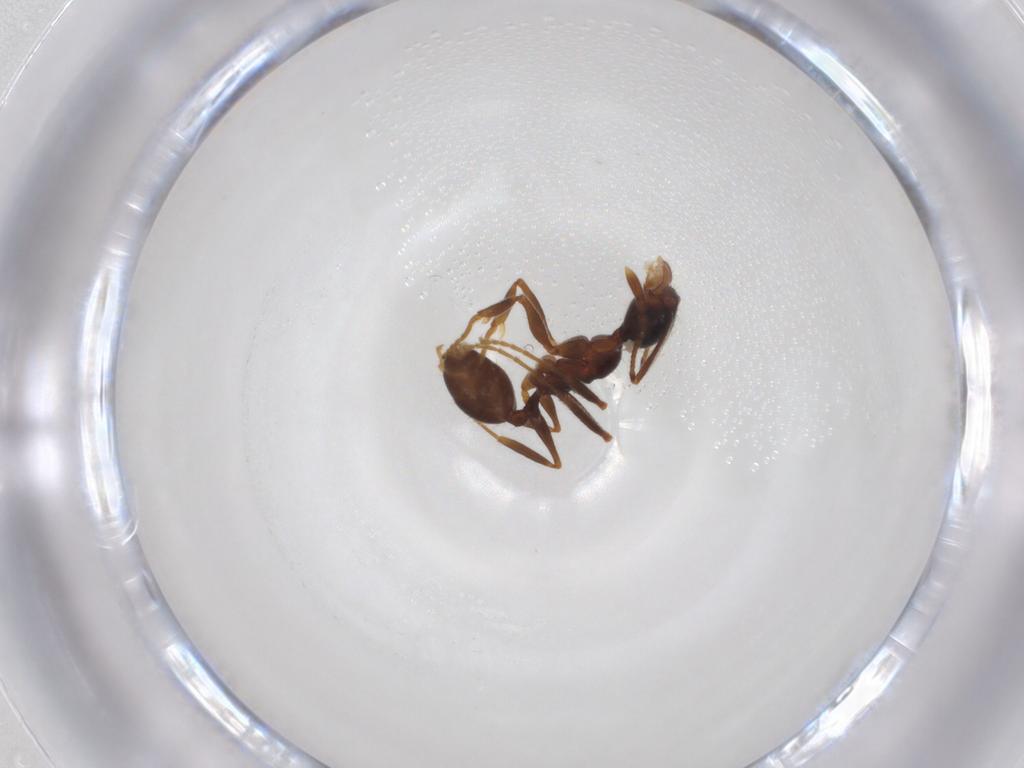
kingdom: Animalia
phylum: Arthropoda
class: Insecta
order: Hymenoptera
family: Formicidae
